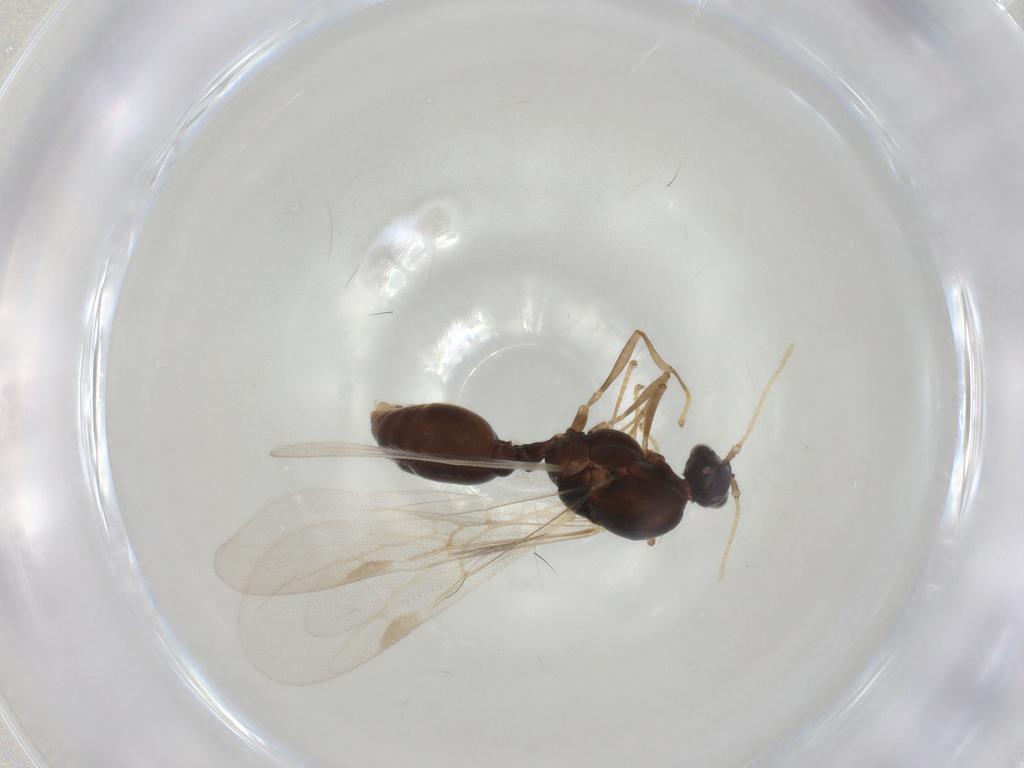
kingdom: Animalia
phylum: Arthropoda
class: Insecta
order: Hymenoptera
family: Formicidae
